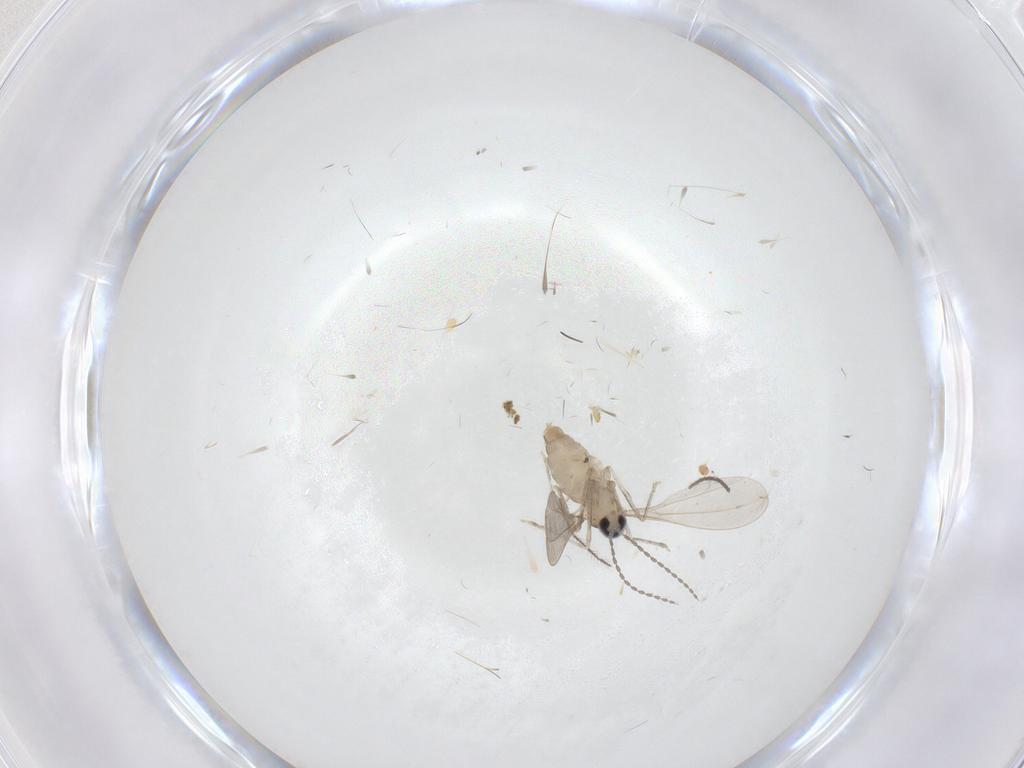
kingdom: Animalia
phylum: Arthropoda
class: Insecta
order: Diptera
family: Cecidomyiidae
